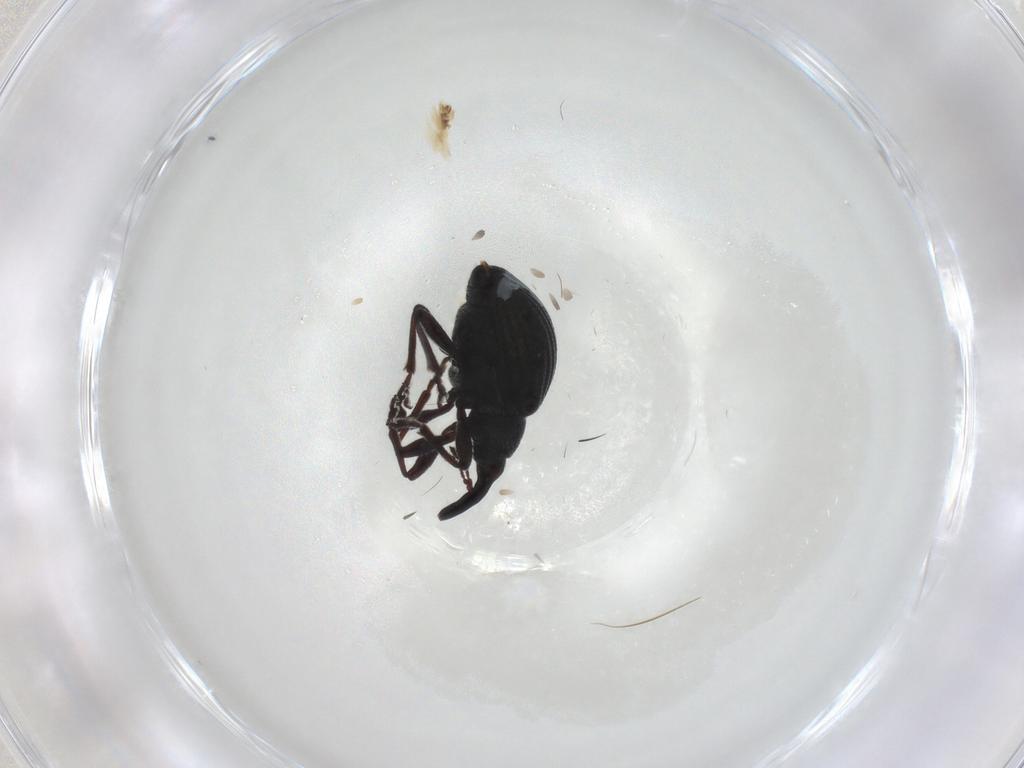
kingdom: Animalia
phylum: Arthropoda
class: Insecta
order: Coleoptera
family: Brentidae
